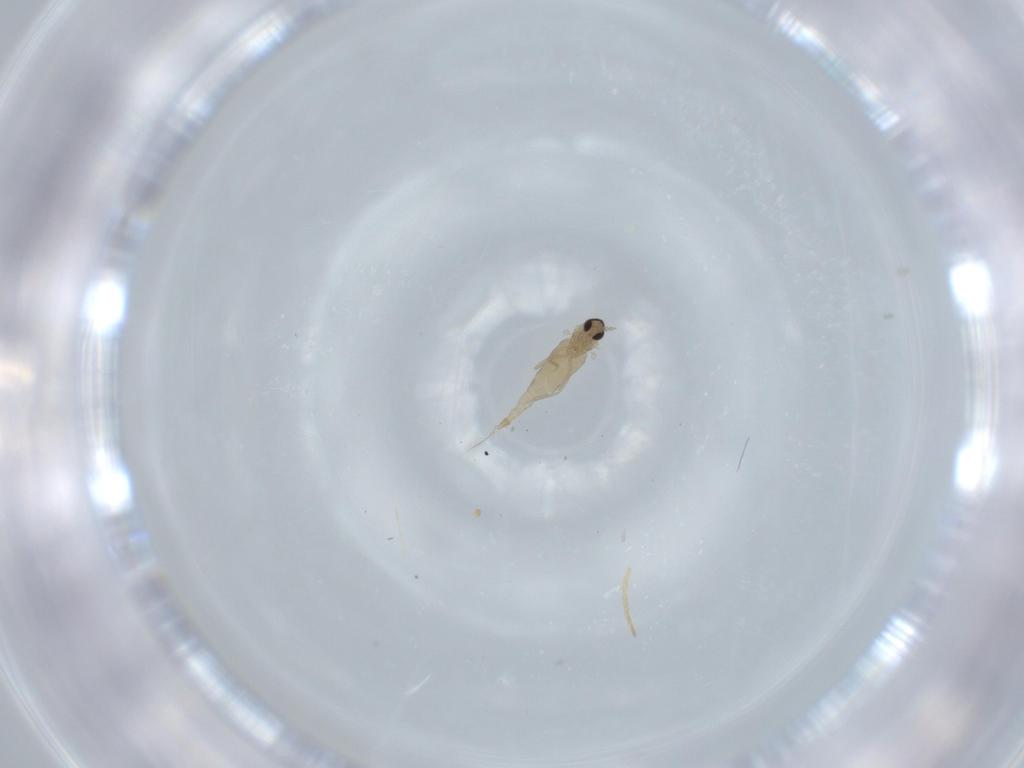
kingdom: Animalia
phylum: Arthropoda
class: Insecta
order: Diptera
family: Cecidomyiidae
